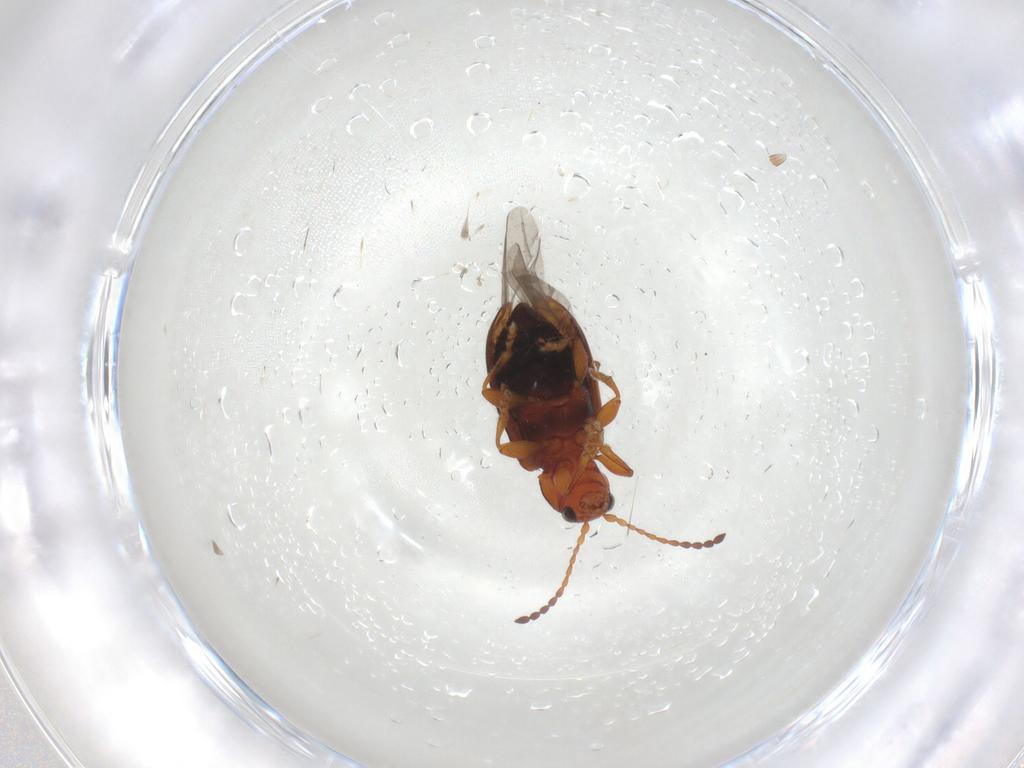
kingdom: Animalia
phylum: Arthropoda
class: Insecta
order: Coleoptera
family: Chrysomelidae
